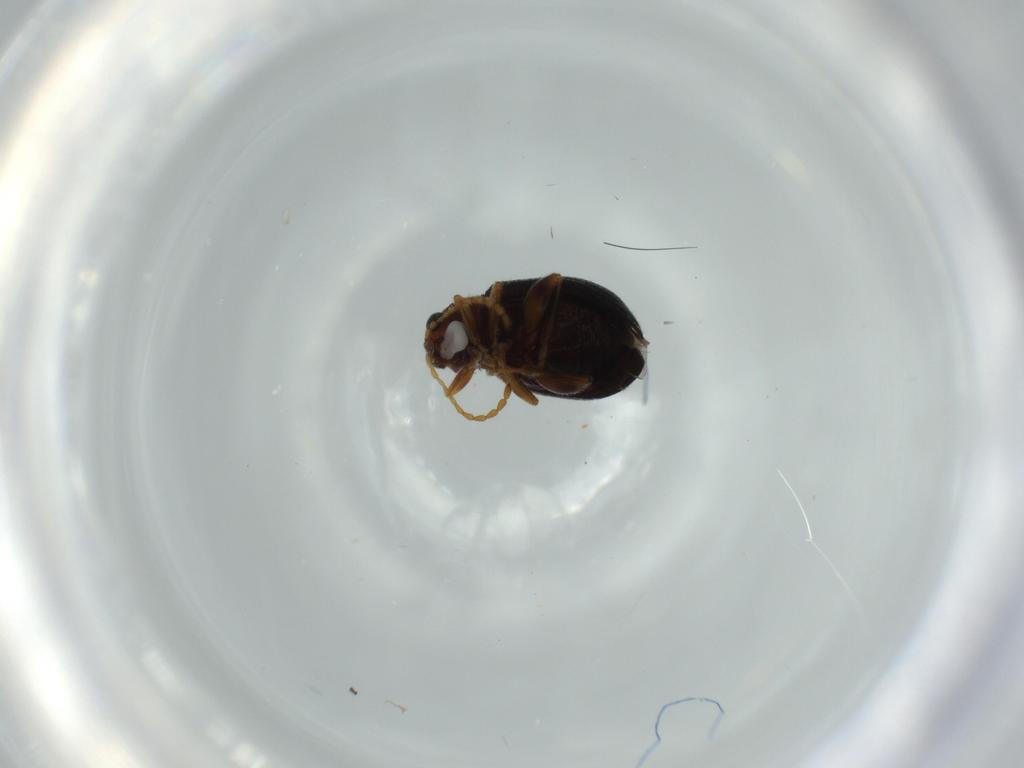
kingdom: Animalia
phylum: Arthropoda
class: Insecta
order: Coleoptera
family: Chrysomelidae
